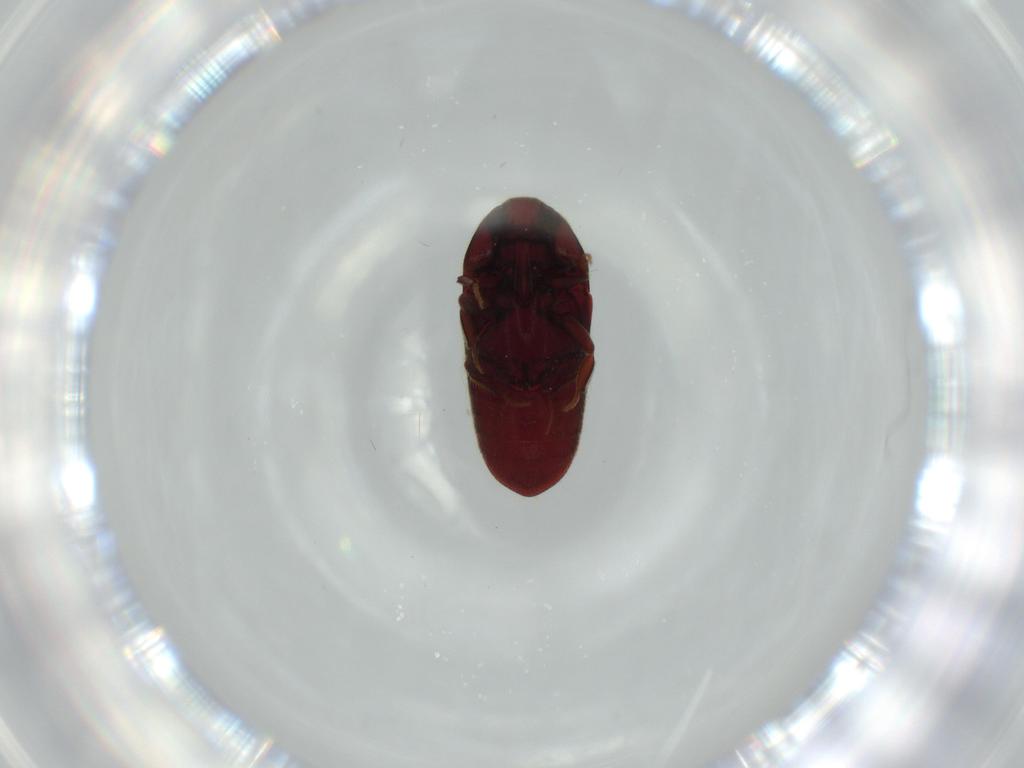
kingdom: Animalia
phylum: Arthropoda
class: Insecta
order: Coleoptera
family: Throscidae
